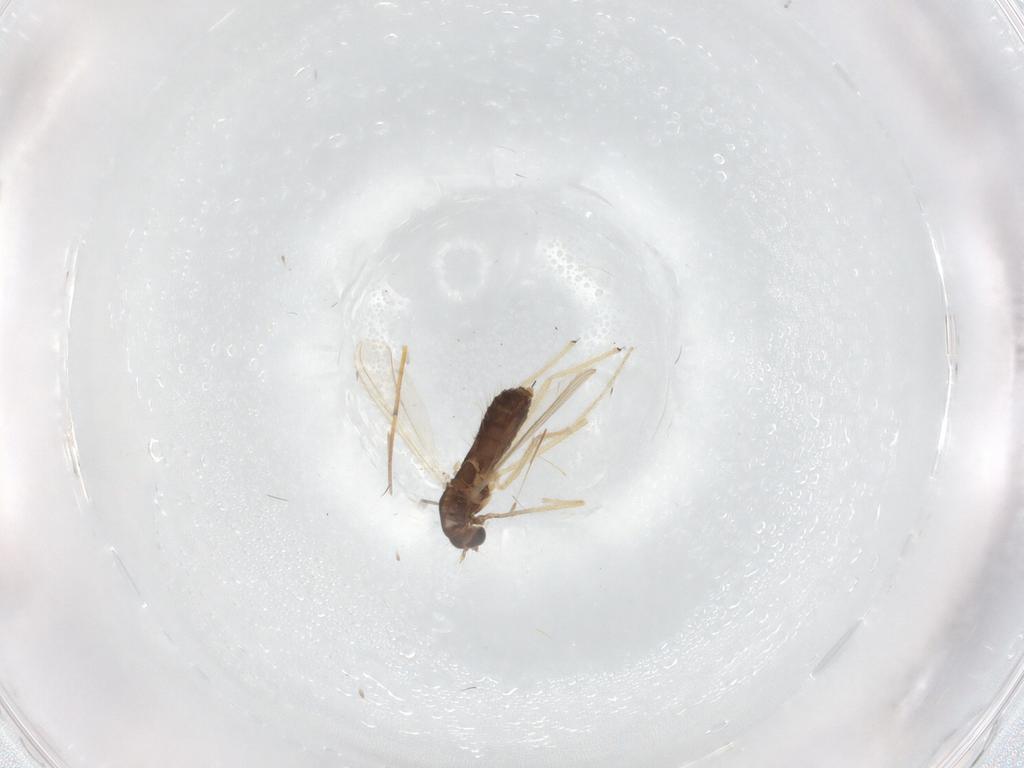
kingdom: Animalia
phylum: Arthropoda
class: Insecta
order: Diptera
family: Chironomidae
